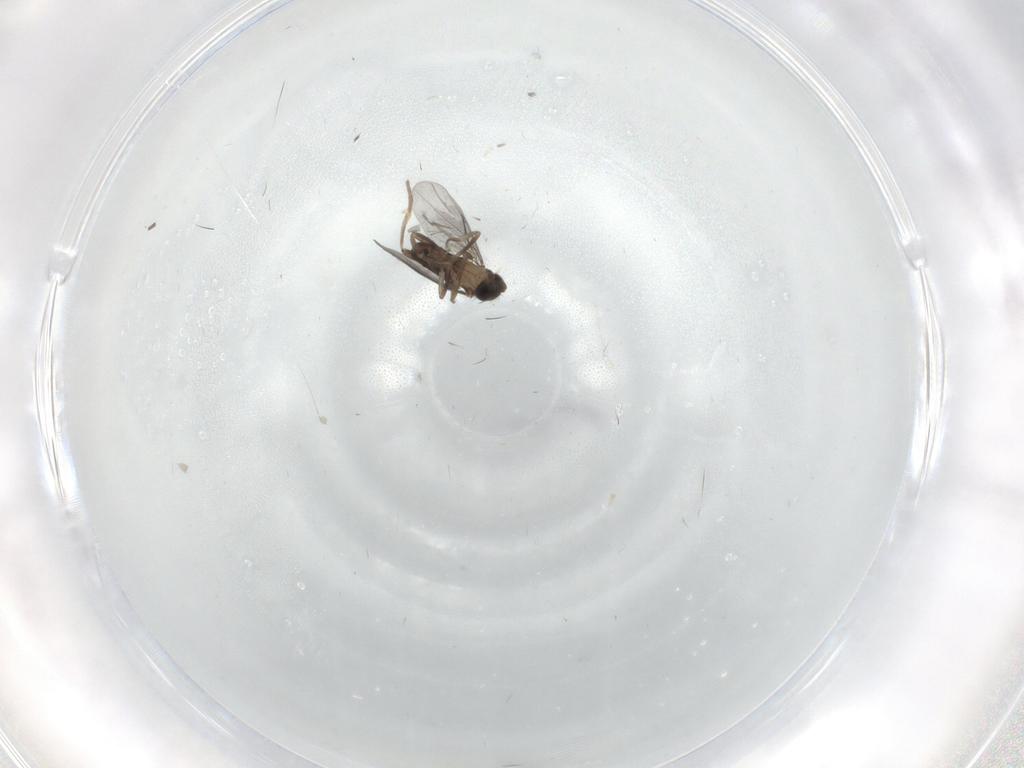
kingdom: Animalia
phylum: Arthropoda
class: Insecta
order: Diptera
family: Cecidomyiidae
